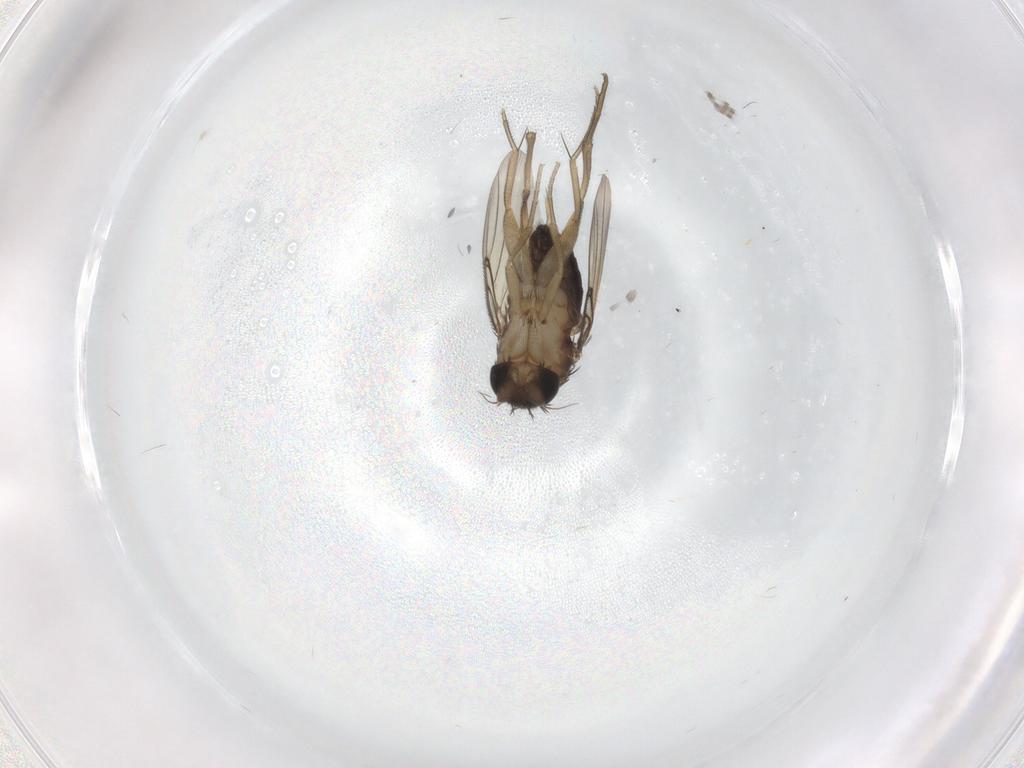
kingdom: Animalia
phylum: Arthropoda
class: Insecta
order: Diptera
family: Phoridae
